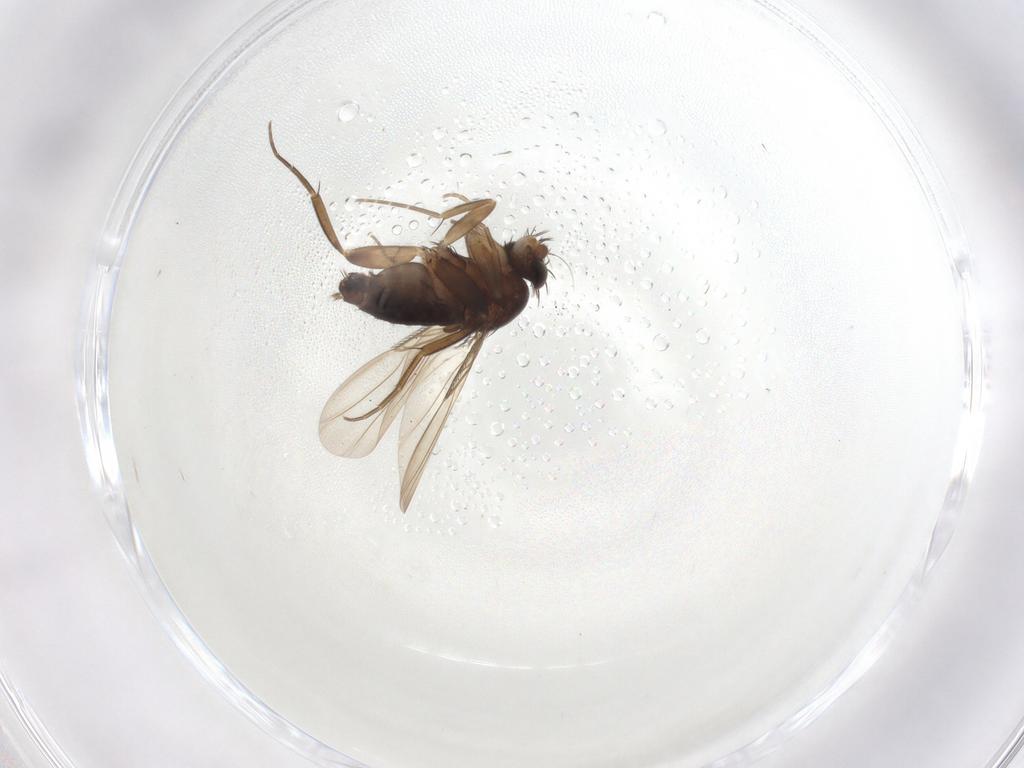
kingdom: Animalia
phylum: Arthropoda
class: Insecta
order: Diptera
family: Phoridae
